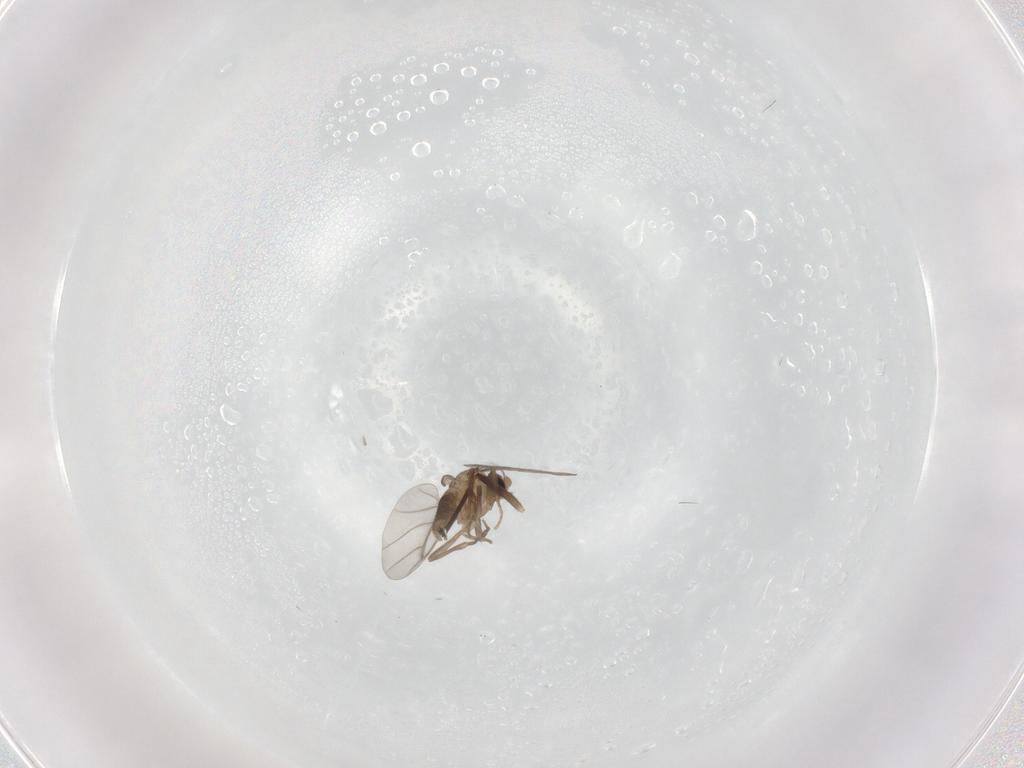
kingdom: Animalia
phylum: Arthropoda
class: Insecta
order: Diptera
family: Cecidomyiidae
